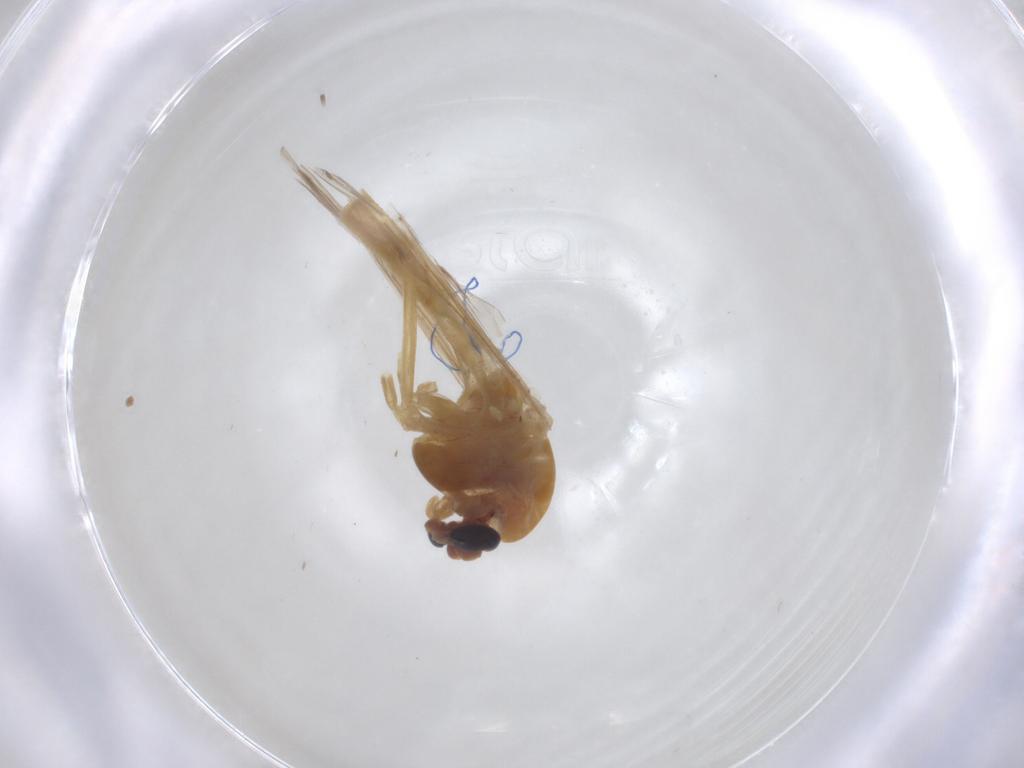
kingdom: Animalia
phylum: Arthropoda
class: Insecta
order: Diptera
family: Chironomidae
